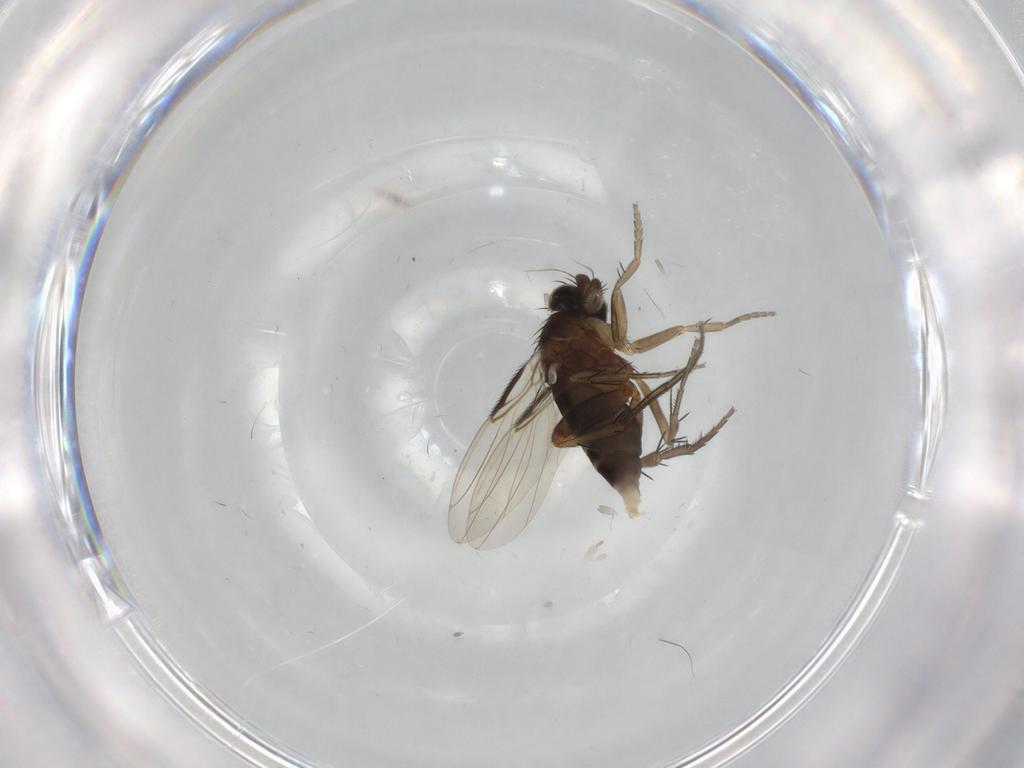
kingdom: Animalia
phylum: Arthropoda
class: Insecta
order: Diptera
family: Phoridae
